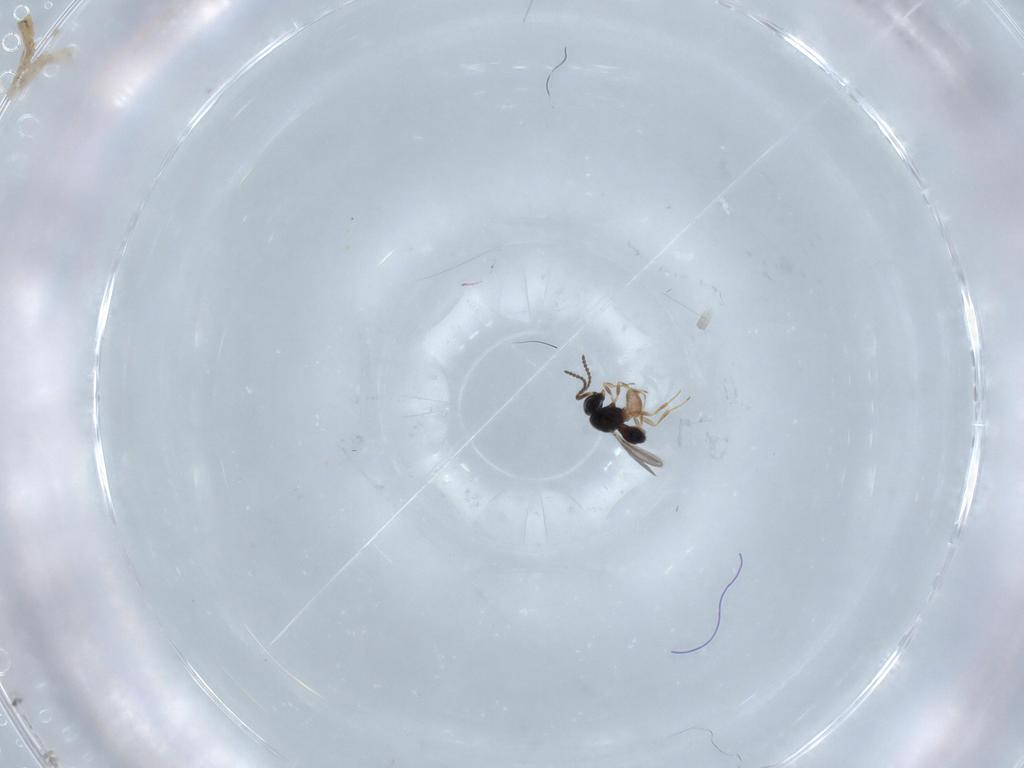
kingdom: Animalia
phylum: Arthropoda
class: Insecta
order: Hymenoptera
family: Scelionidae
